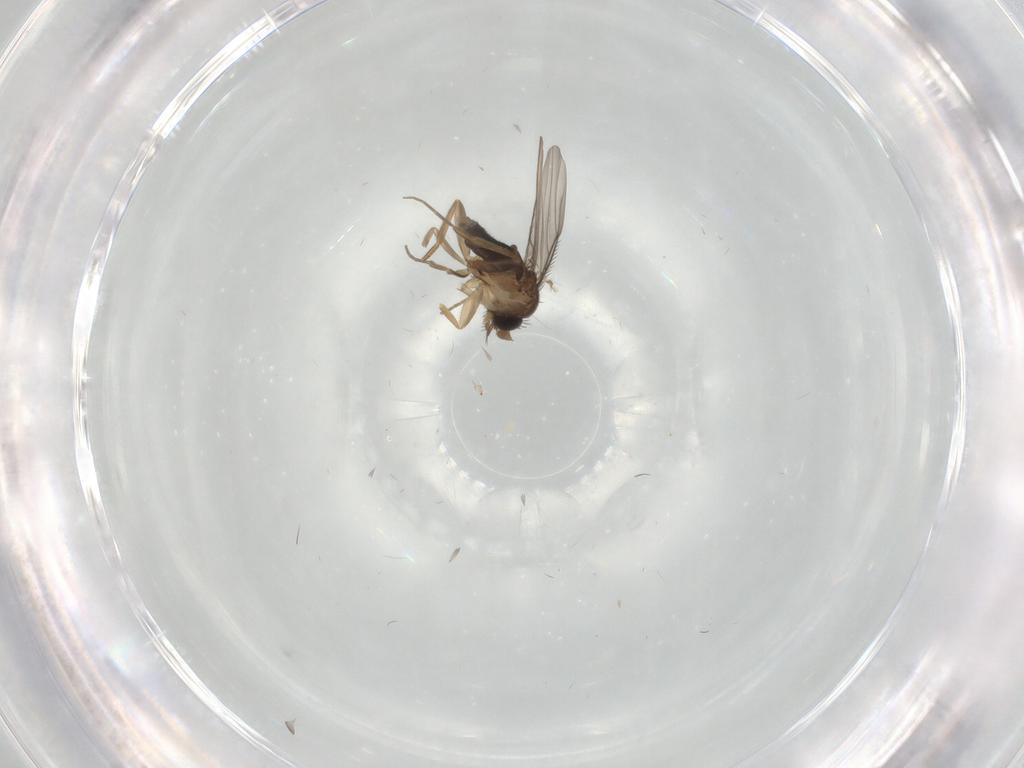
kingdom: Animalia
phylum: Arthropoda
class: Insecta
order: Diptera
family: Phoridae
